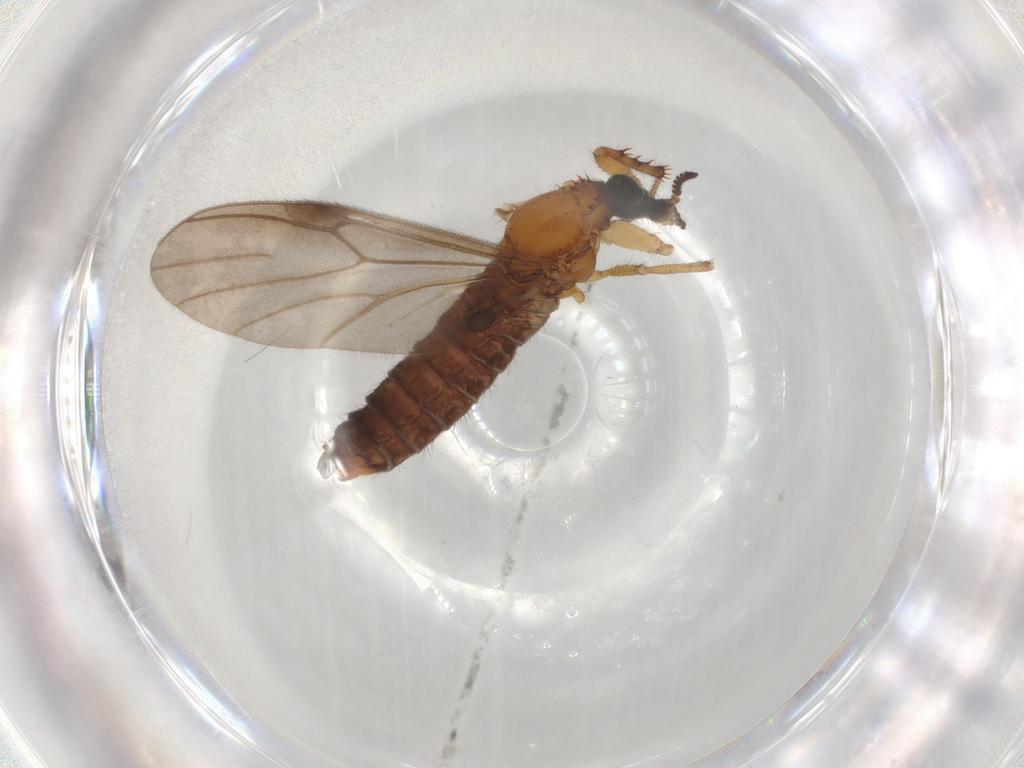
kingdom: Animalia
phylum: Arthropoda
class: Insecta
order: Diptera
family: Bibionidae
